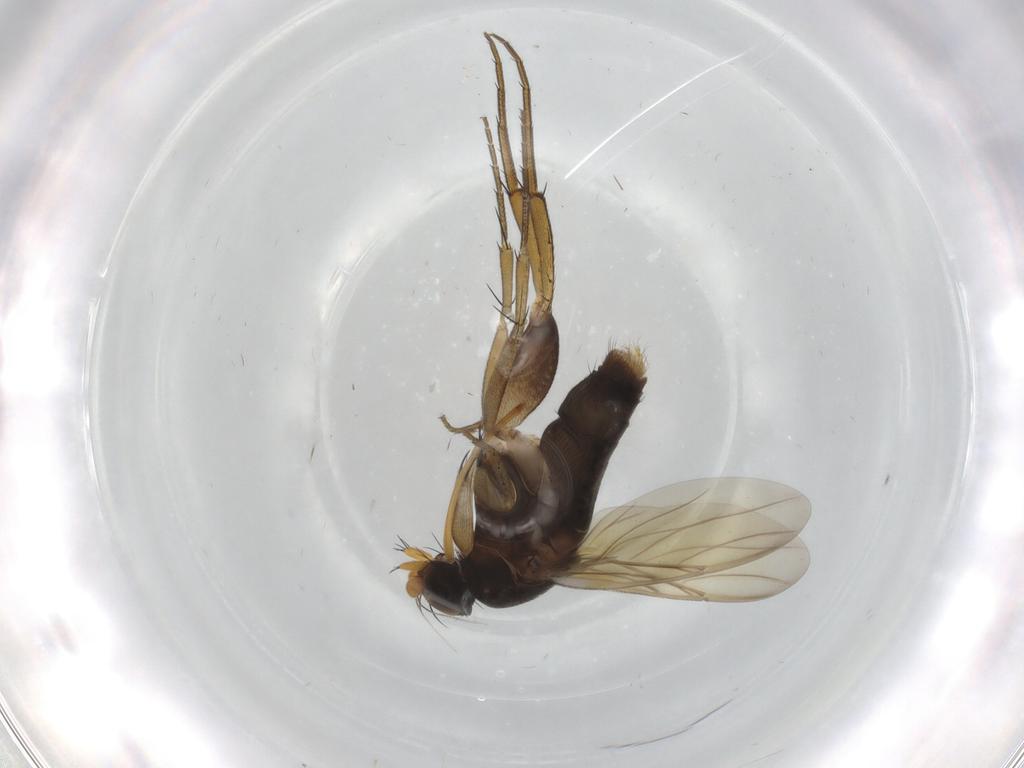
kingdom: Animalia
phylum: Arthropoda
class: Insecta
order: Diptera
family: Phoridae
